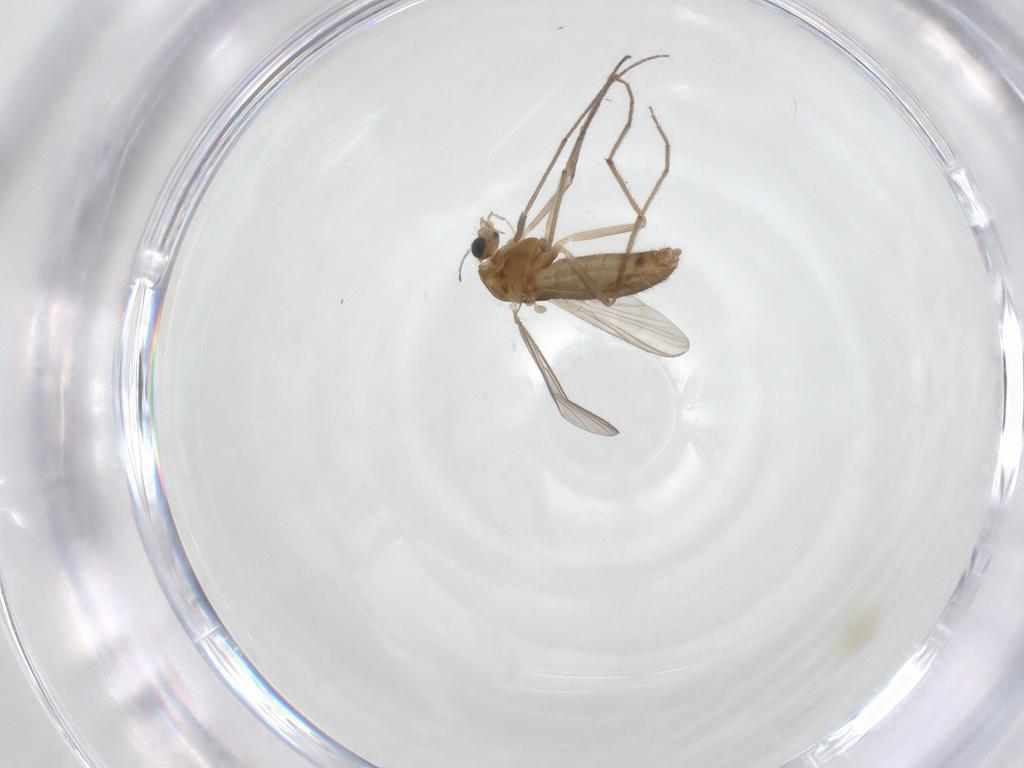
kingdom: Animalia
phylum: Arthropoda
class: Insecta
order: Diptera
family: Chironomidae
